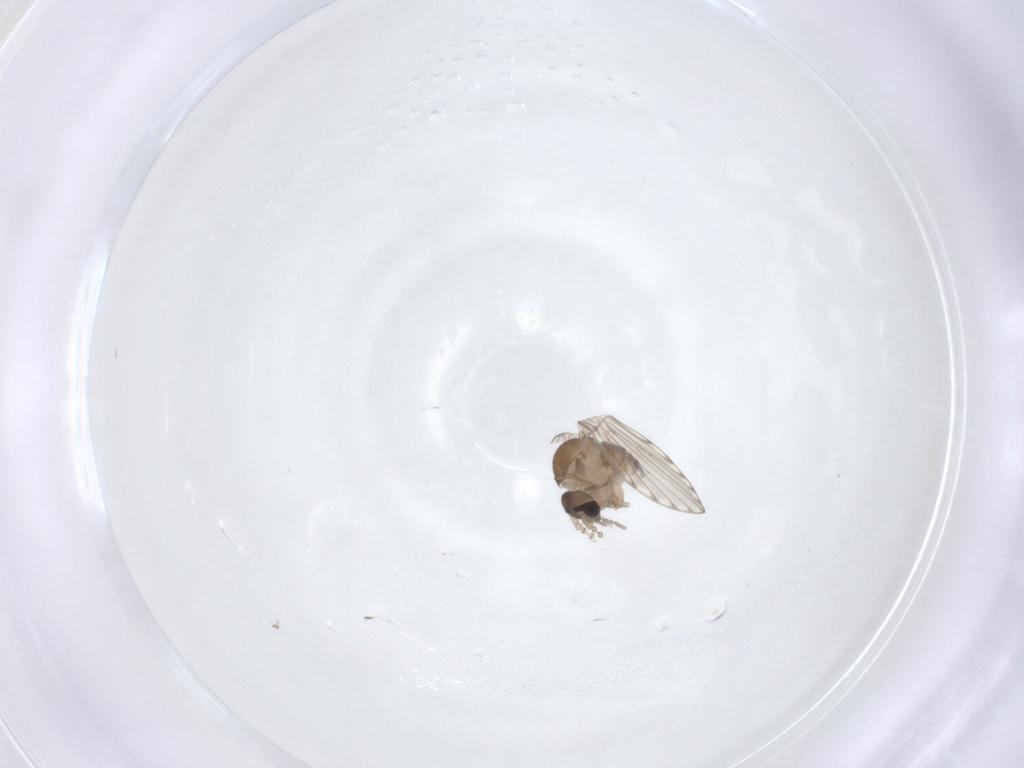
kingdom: Animalia
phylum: Arthropoda
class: Insecta
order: Diptera
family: Psychodidae
